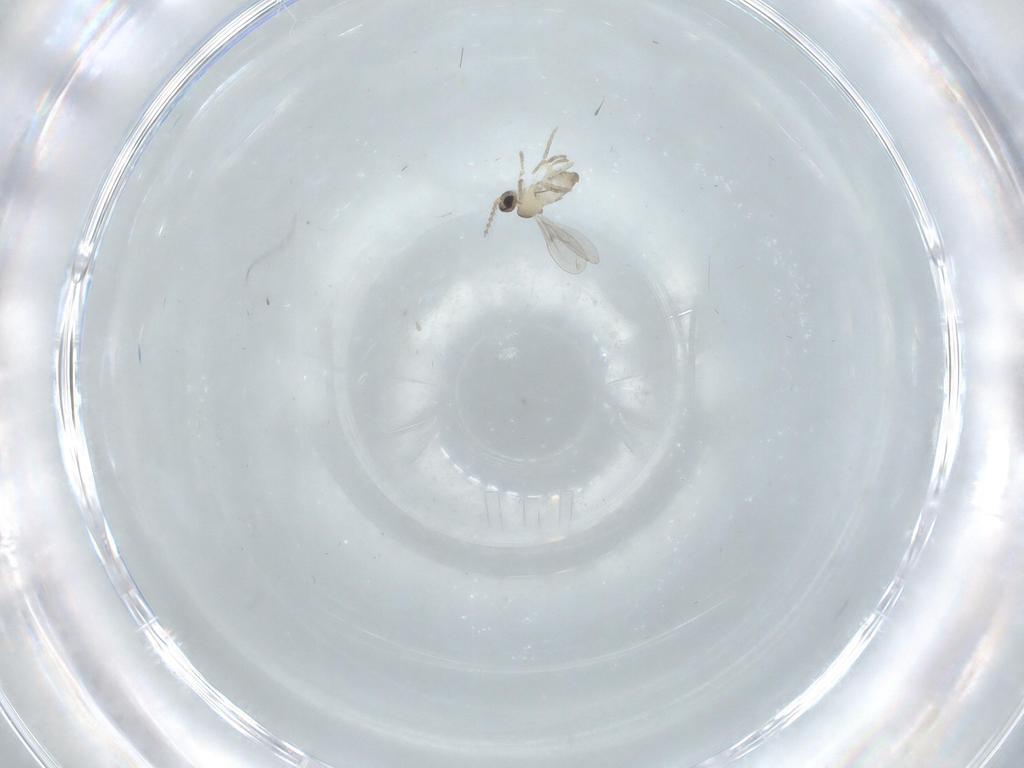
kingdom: Animalia
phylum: Arthropoda
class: Insecta
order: Diptera
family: Cecidomyiidae
